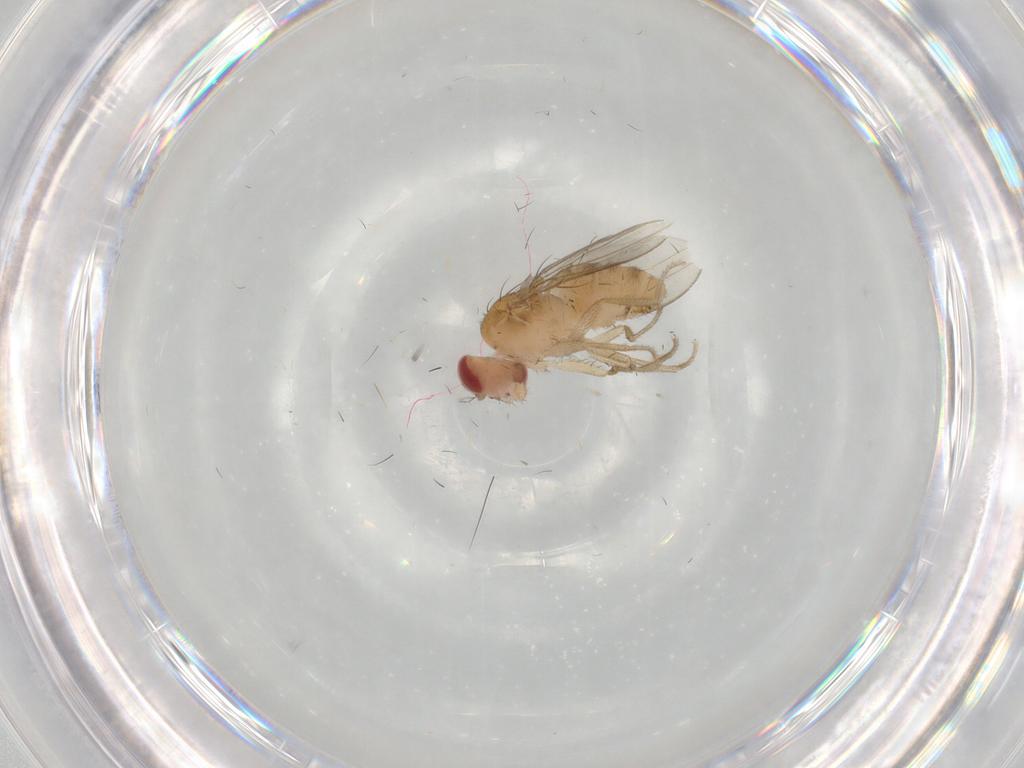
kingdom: Animalia
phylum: Arthropoda
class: Insecta
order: Diptera
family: Drosophilidae
